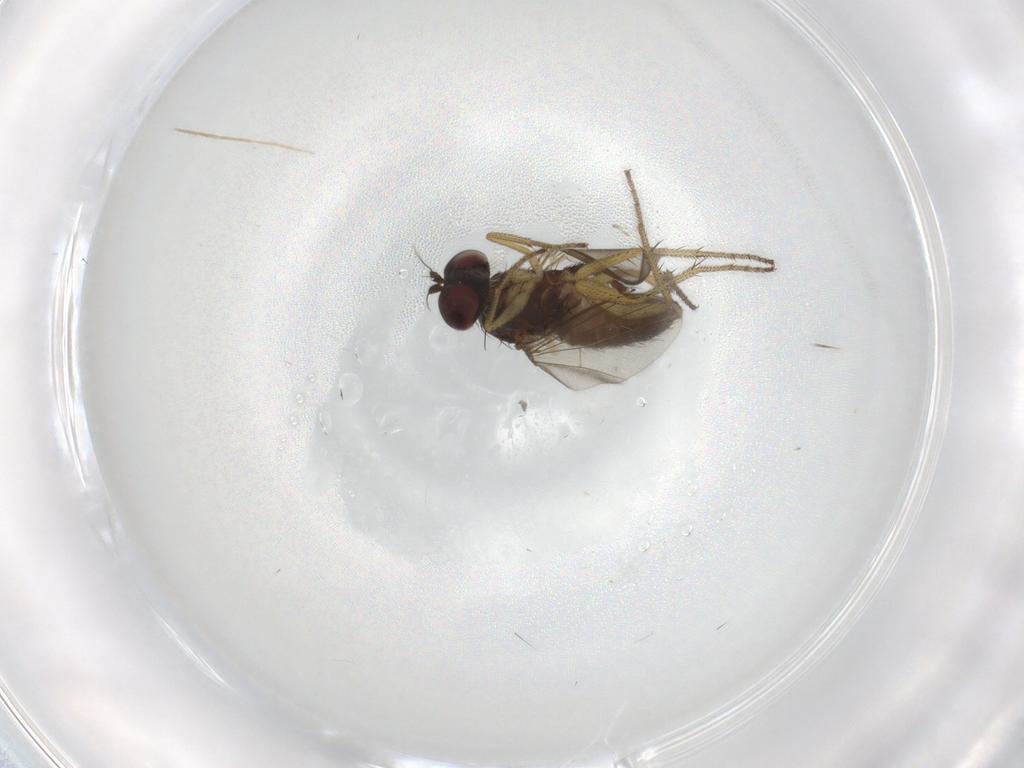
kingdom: Animalia
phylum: Arthropoda
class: Insecta
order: Diptera
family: Dolichopodidae
